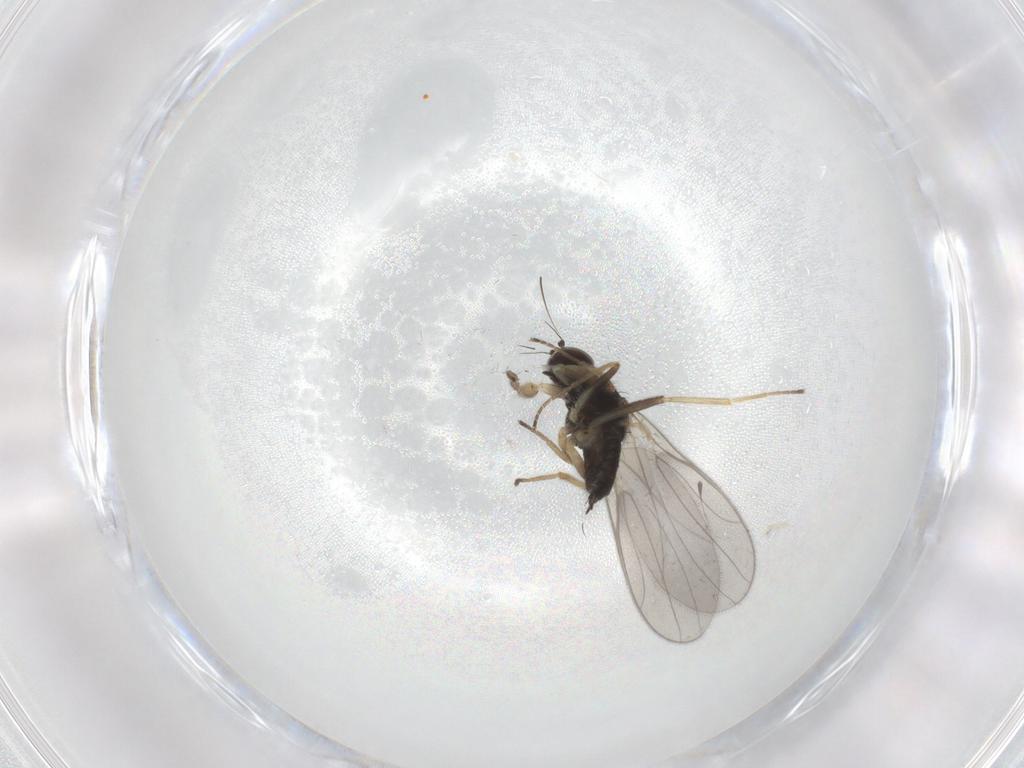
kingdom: Animalia
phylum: Arthropoda
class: Insecta
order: Diptera
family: Hybotidae
